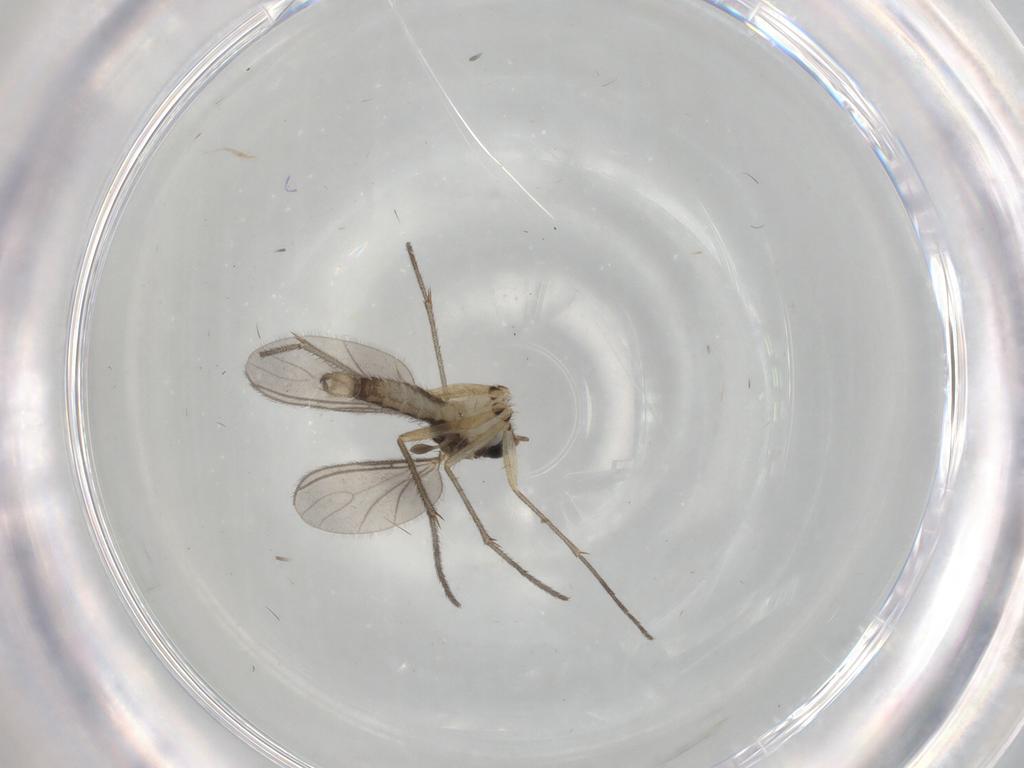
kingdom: Animalia
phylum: Arthropoda
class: Insecta
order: Diptera
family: Sciaridae
